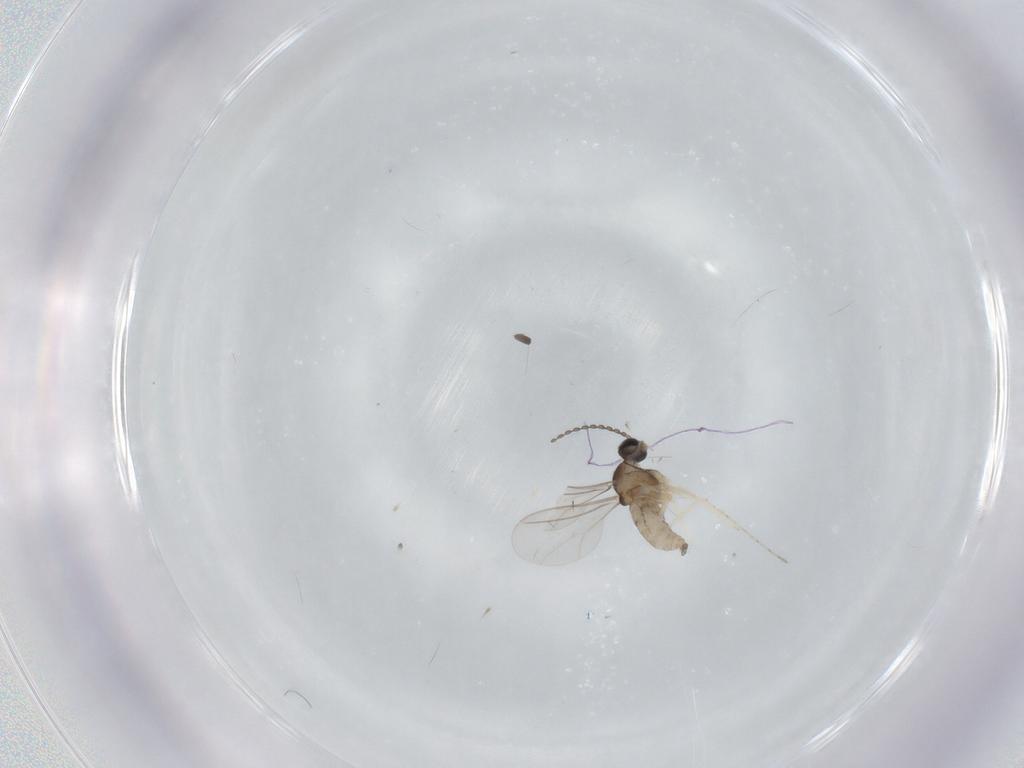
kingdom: Animalia
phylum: Arthropoda
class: Insecta
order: Diptera
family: Cecidomyiidae
